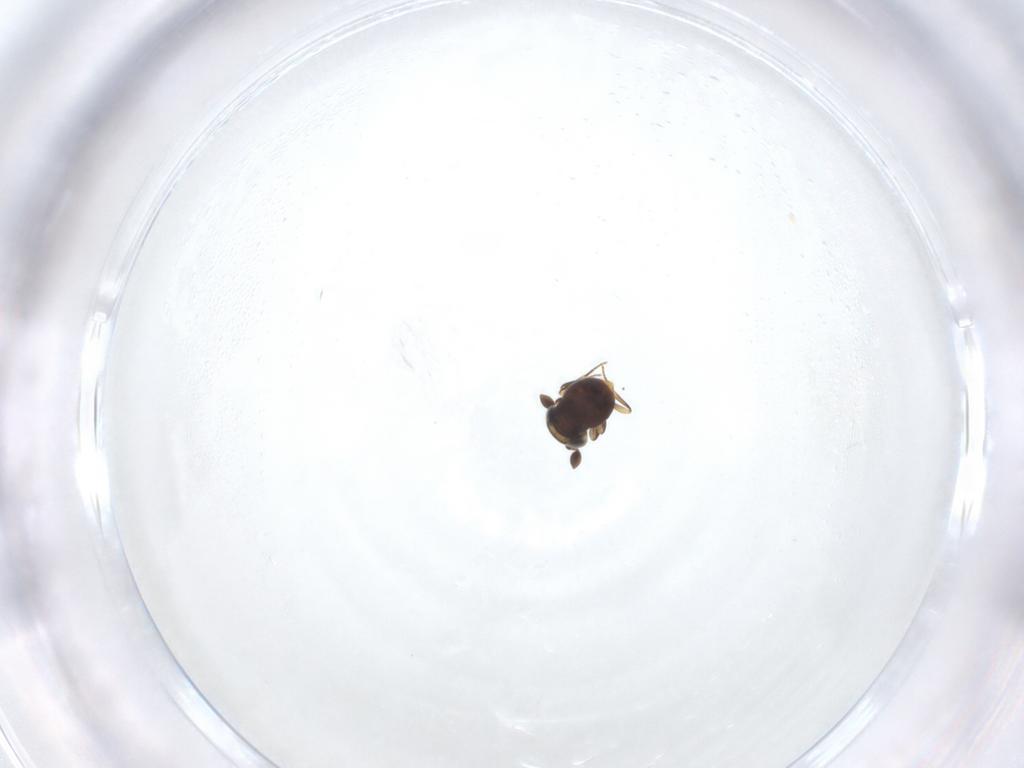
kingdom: Animalia
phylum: Arthropoda
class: Insecta
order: Hymenoptera
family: Scelionidae
